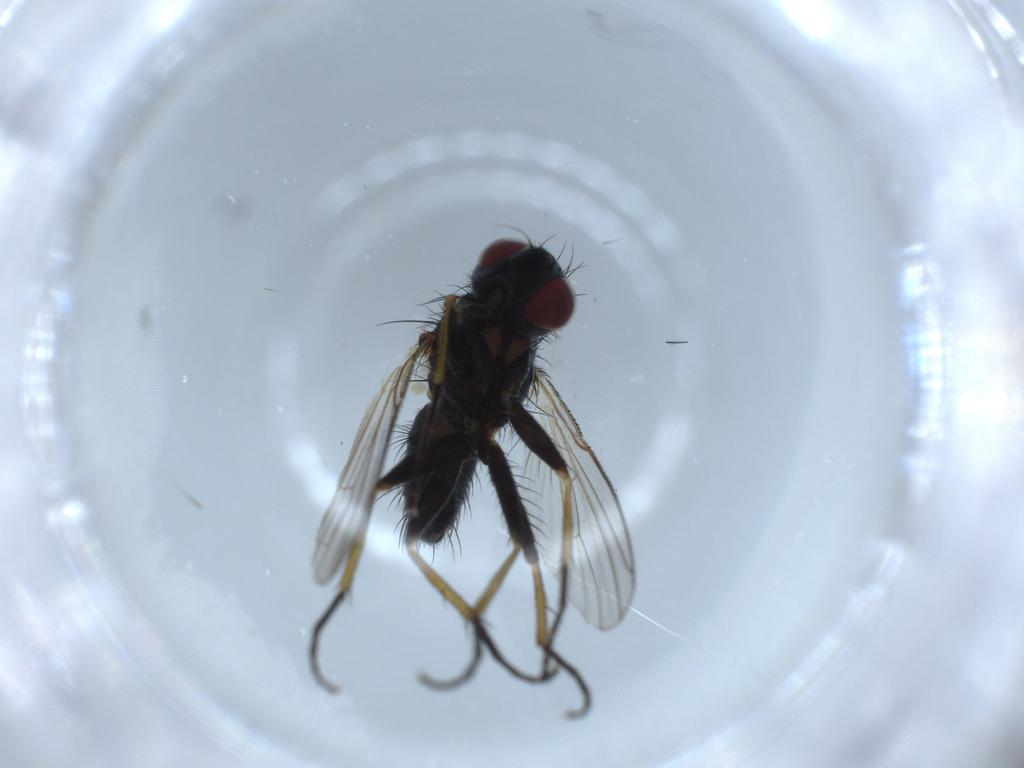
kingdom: Animalia
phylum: Arthropoda
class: Insecta
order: Diptera
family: Muscidae
